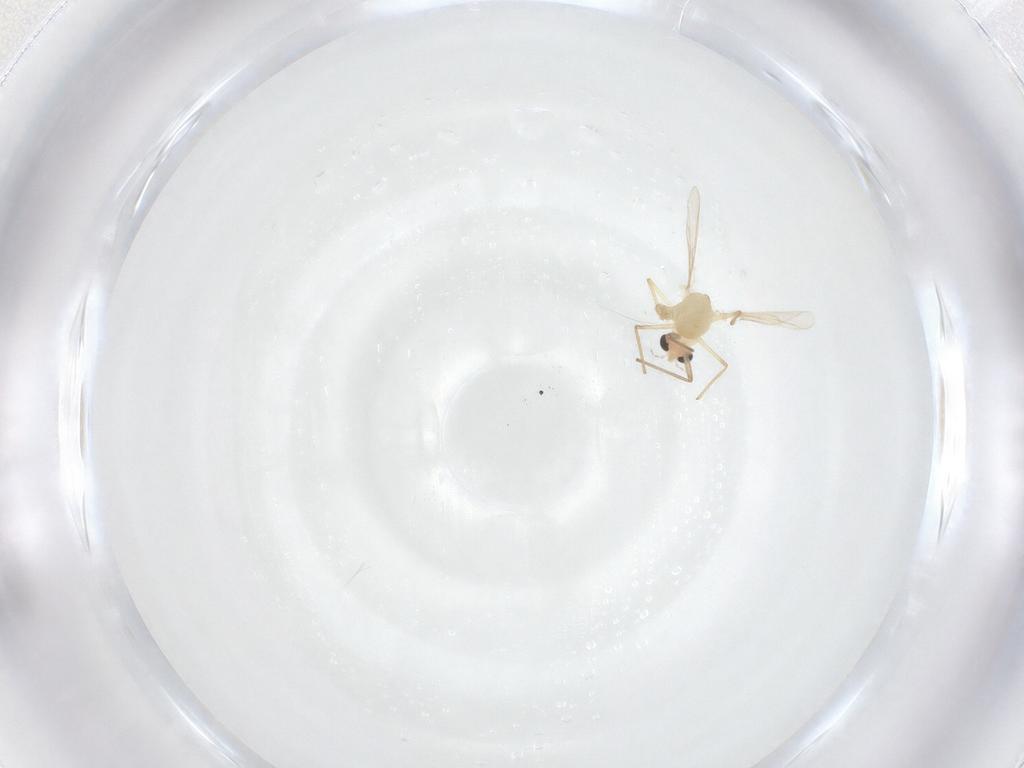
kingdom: Animalia
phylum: Arthropoda
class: Insecta
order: Diptera
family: Chironomidae
